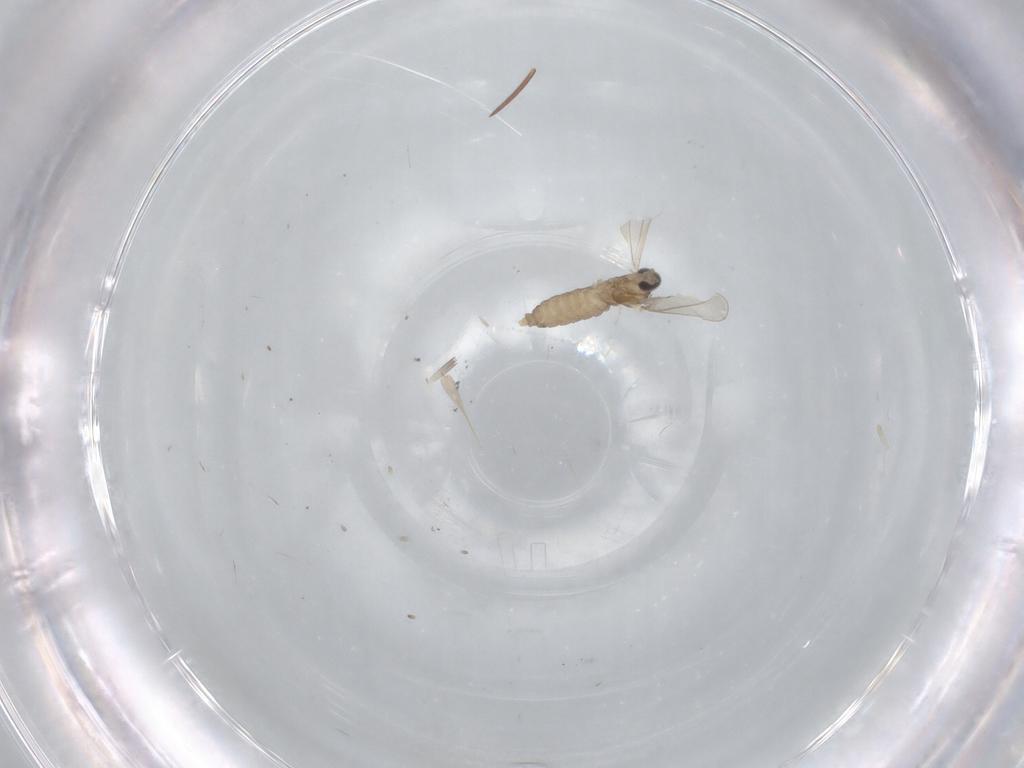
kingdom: Animalia
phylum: Arthropoda
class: Insecta
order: Diptera
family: Cecidomyiidae
